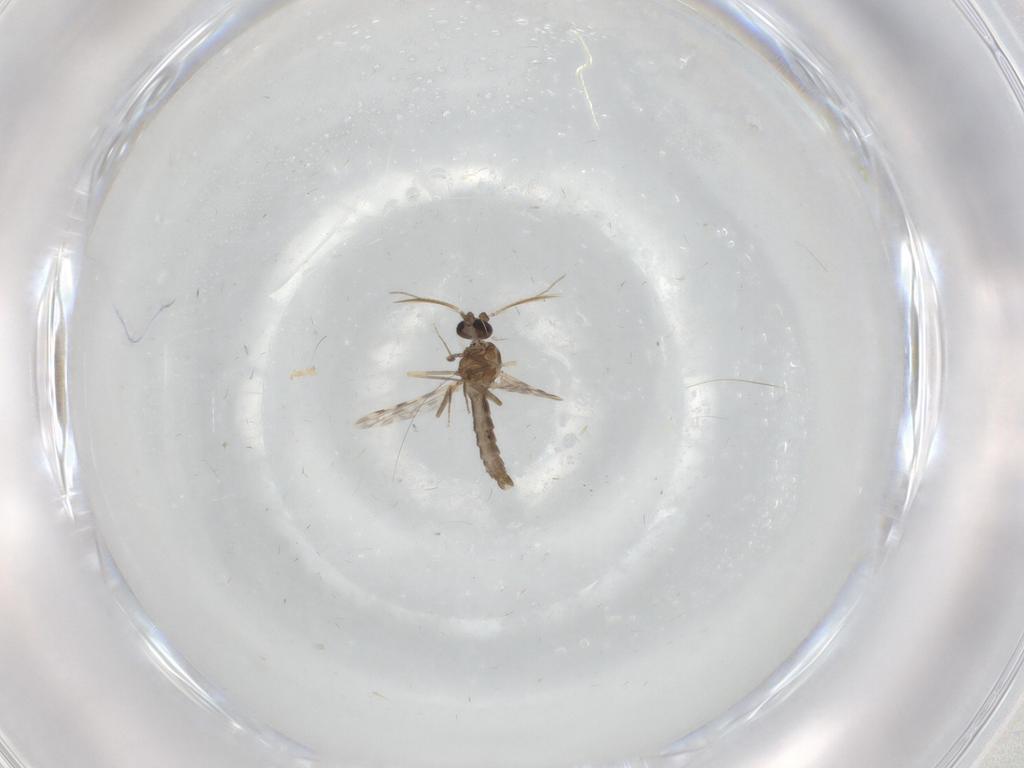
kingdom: Animalia
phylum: Arthropoda
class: Insecta
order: Diptera
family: Ceratopogonidae
